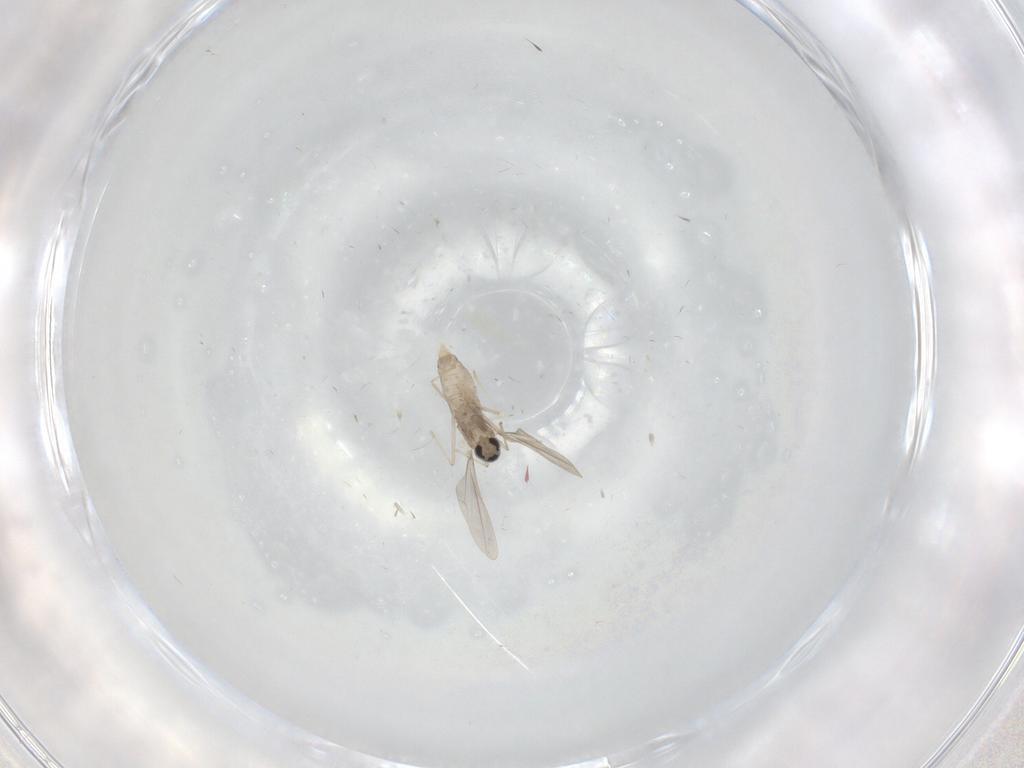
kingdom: Animalia
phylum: Arthropoda
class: Insecta
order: Diptera
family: Cecidomyiidae
